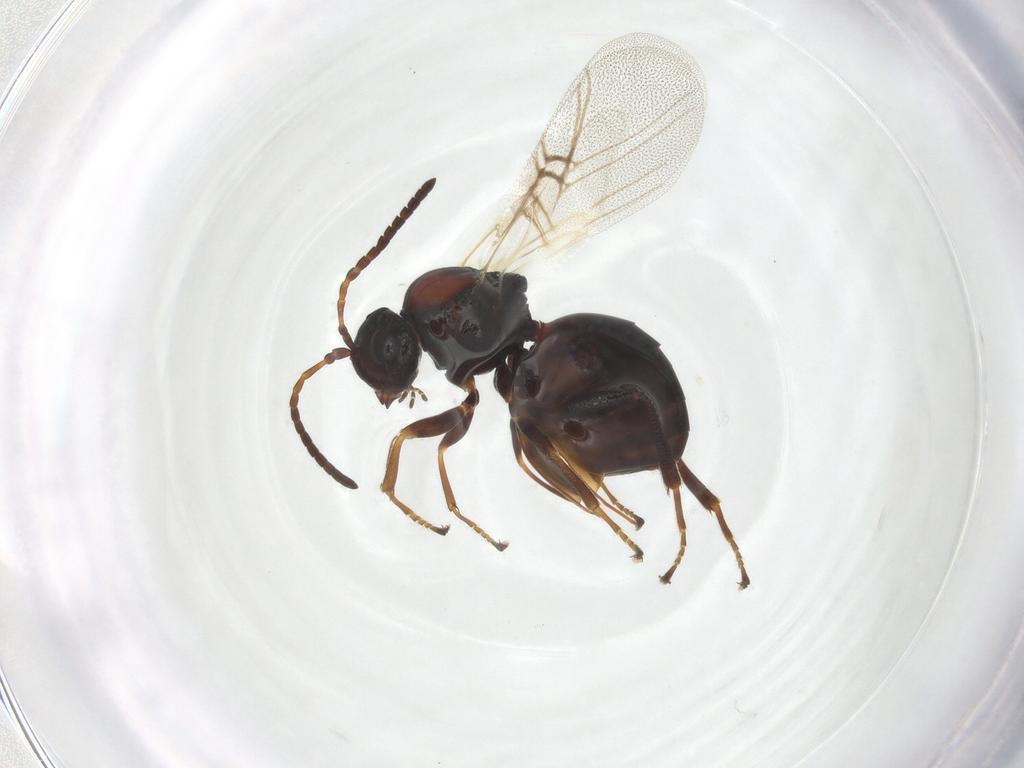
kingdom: Animalia
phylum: Arthropoda
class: Insecta
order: Hymenoptera
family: Cynipidae
